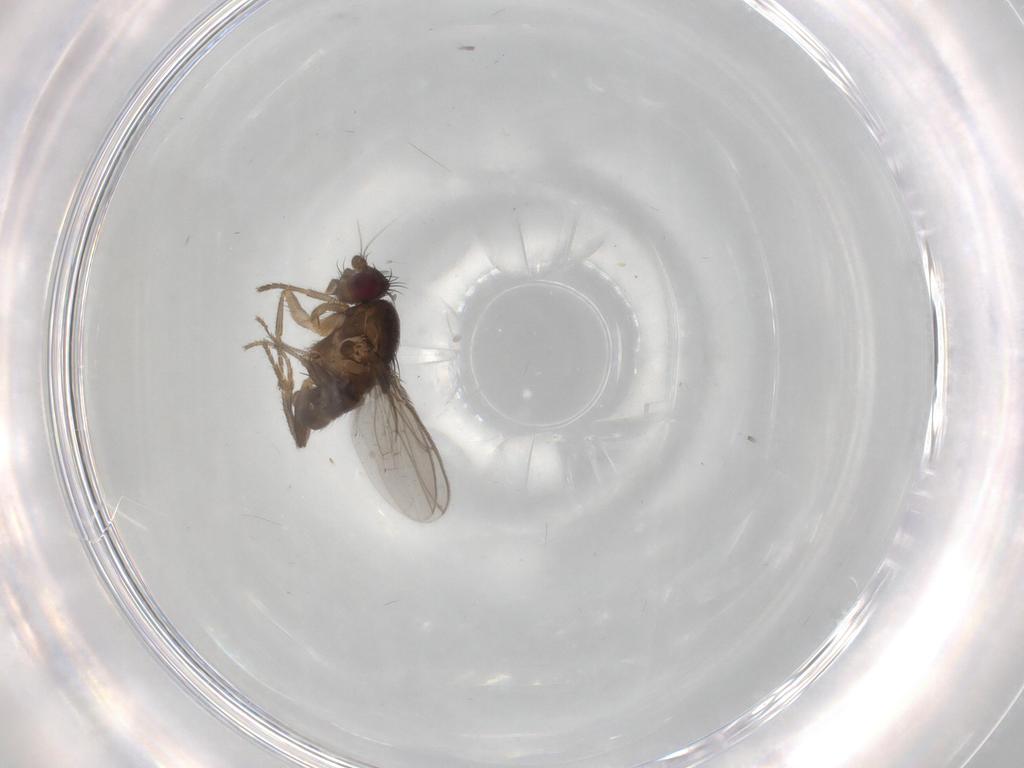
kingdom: Animalia
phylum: Arthropoda
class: Insecta
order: Diptera
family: Sphaeroceridae
